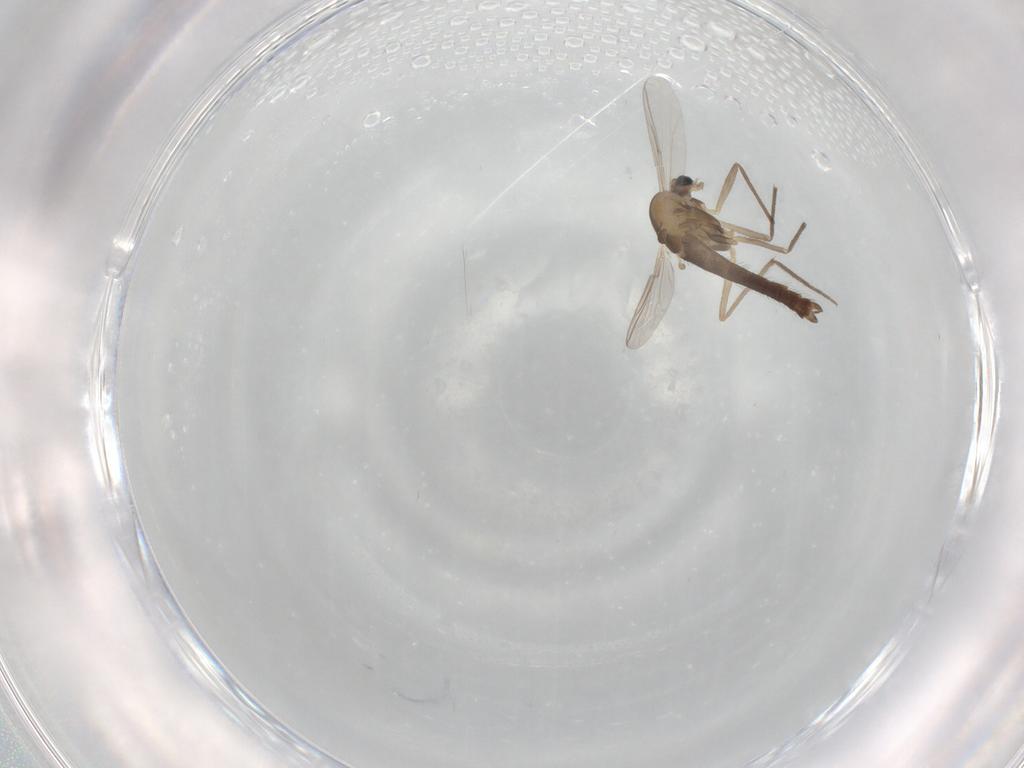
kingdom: Animalia
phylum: Arthropoda
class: Insecta
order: Diptera
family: Chironomidae
